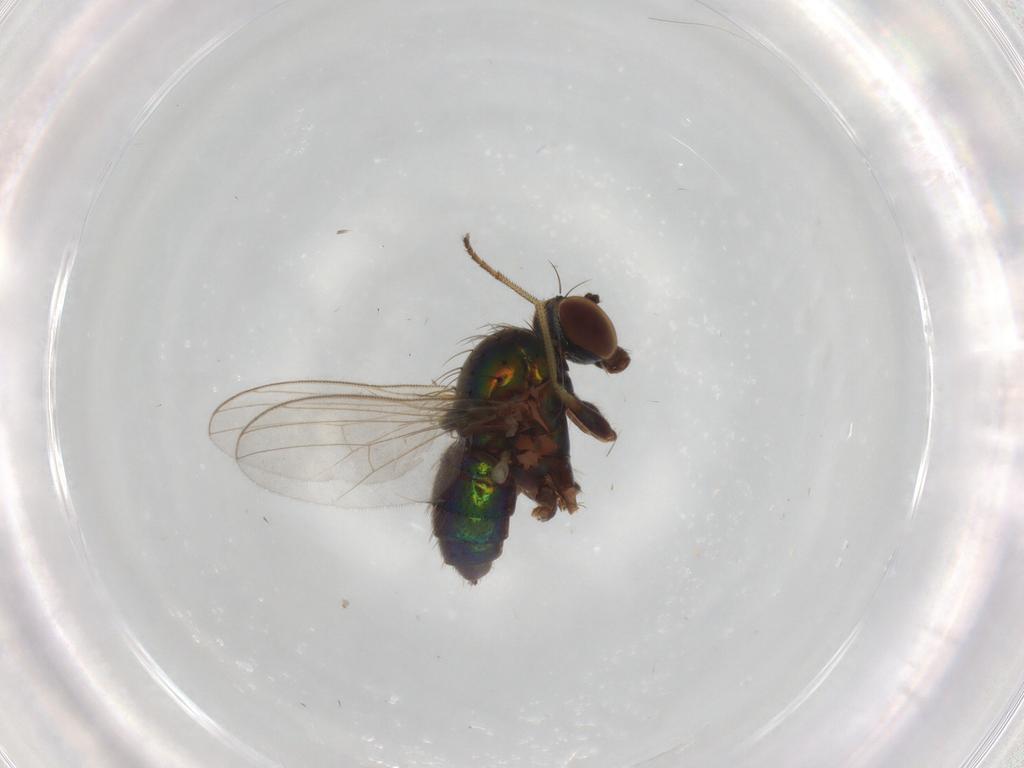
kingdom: Animalia
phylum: Arthropoda
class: Insecta
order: Diptera
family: Dolichopodidae
